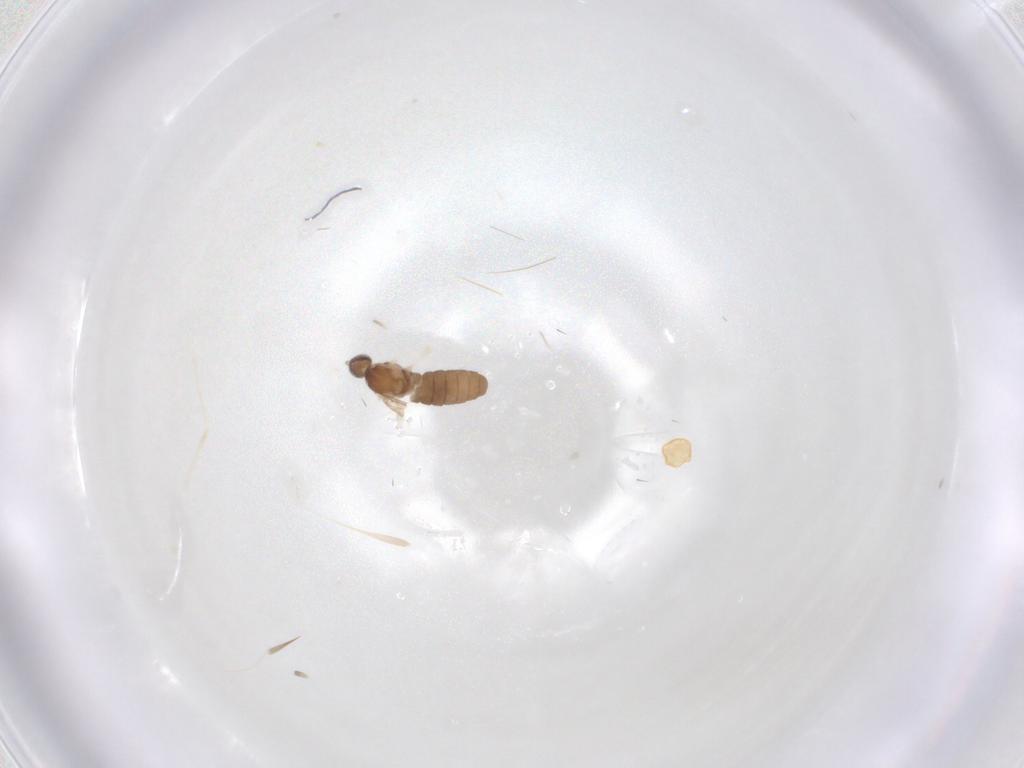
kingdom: Animalia
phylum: Arthropoda
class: Insecta
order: Diptera
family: Cecidomyiidae
